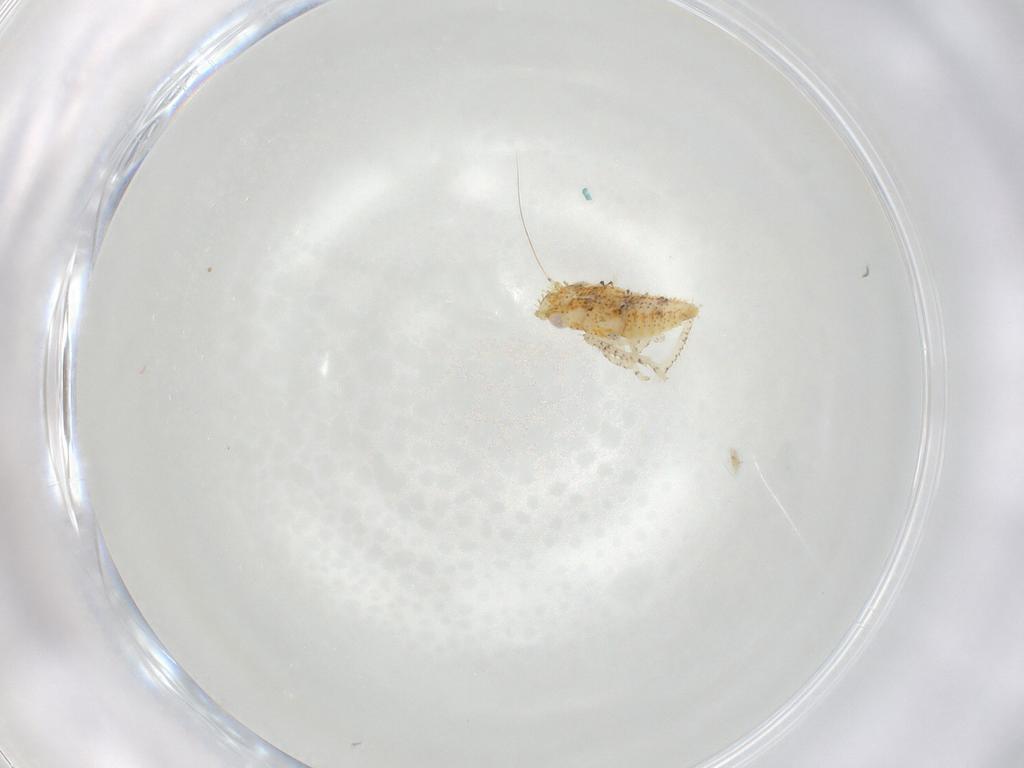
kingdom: Animalia
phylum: Arthropoda
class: Insecta
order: Hemiptera
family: Cicadellidae
